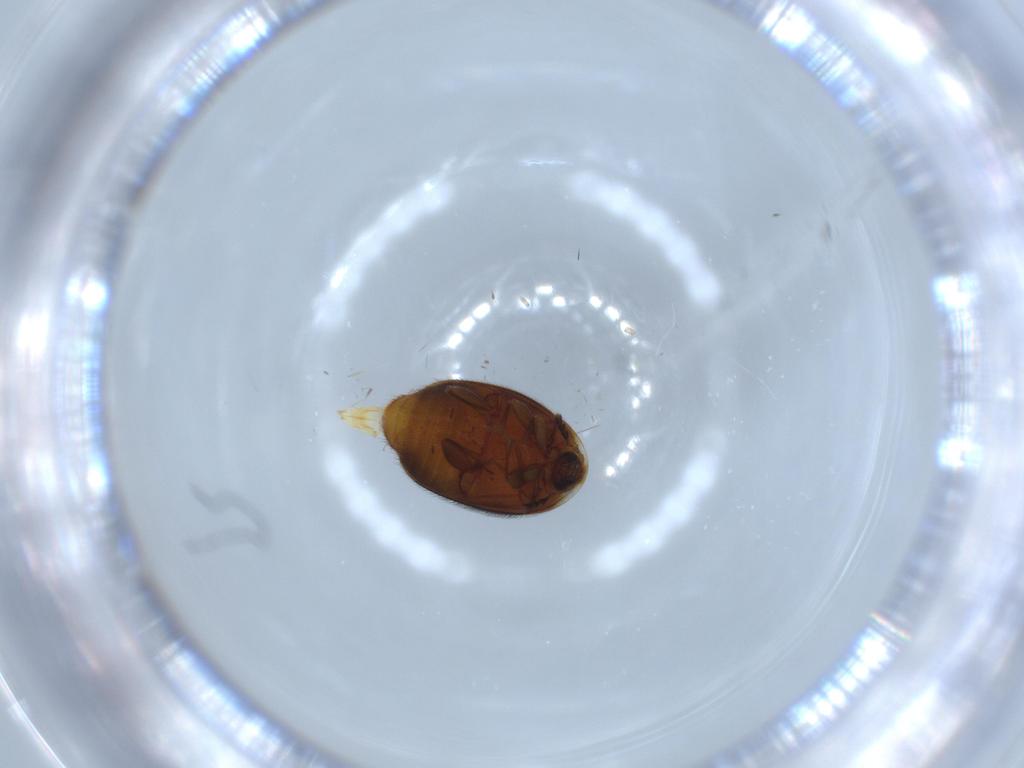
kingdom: Animalia
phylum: Arthropoda
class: Insecta
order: Coleoptera
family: Corylophidae
